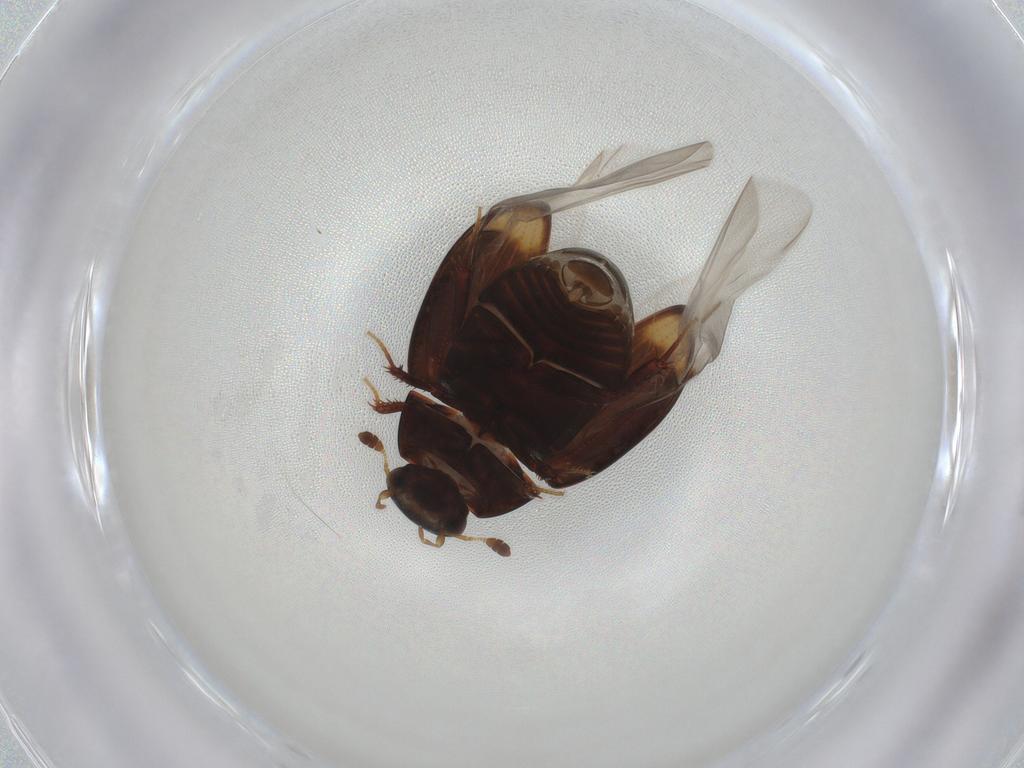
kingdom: Animalia
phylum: Arthropoda
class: Insecta
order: Coleoptera
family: Hydrophilidae
